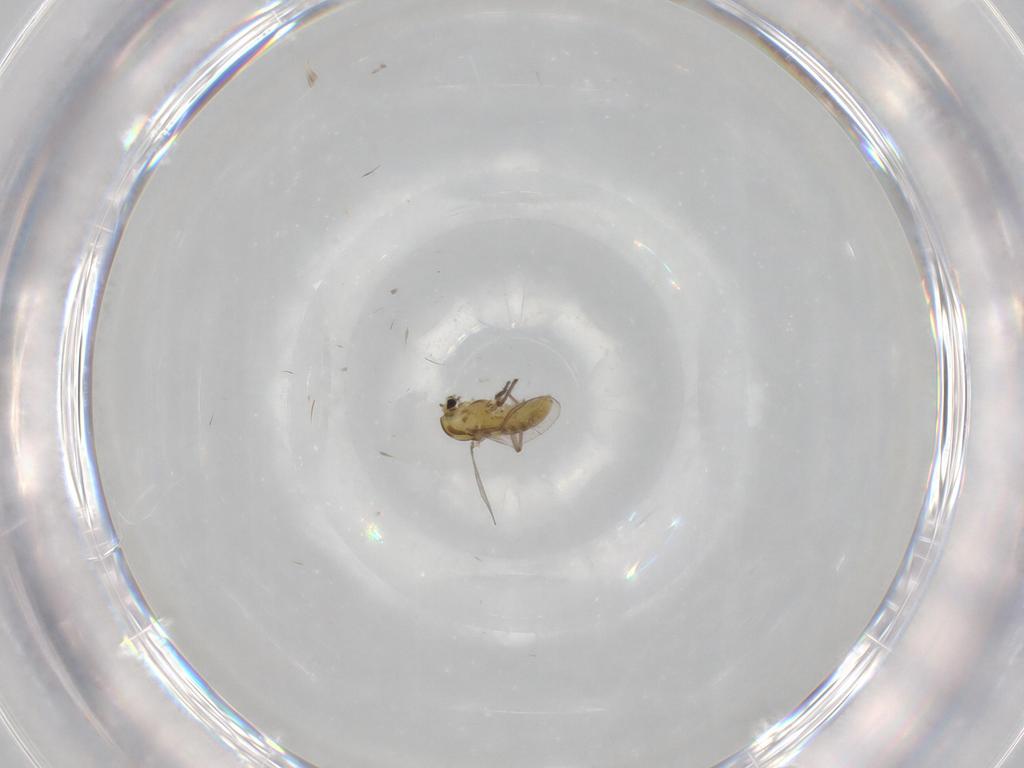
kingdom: Animalia
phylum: Arthropoda
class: Insecta
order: Diptera
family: Chironomidae
